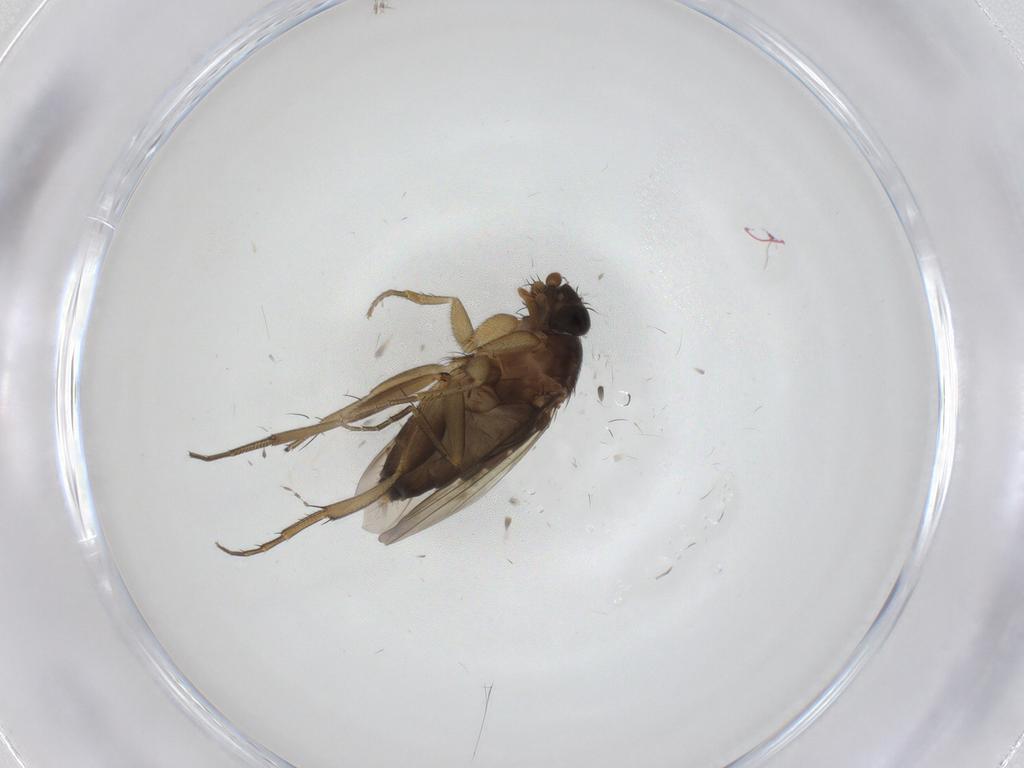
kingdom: Animalia
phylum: Arthropoda
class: Insecta
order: Diptera
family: Phoridae
